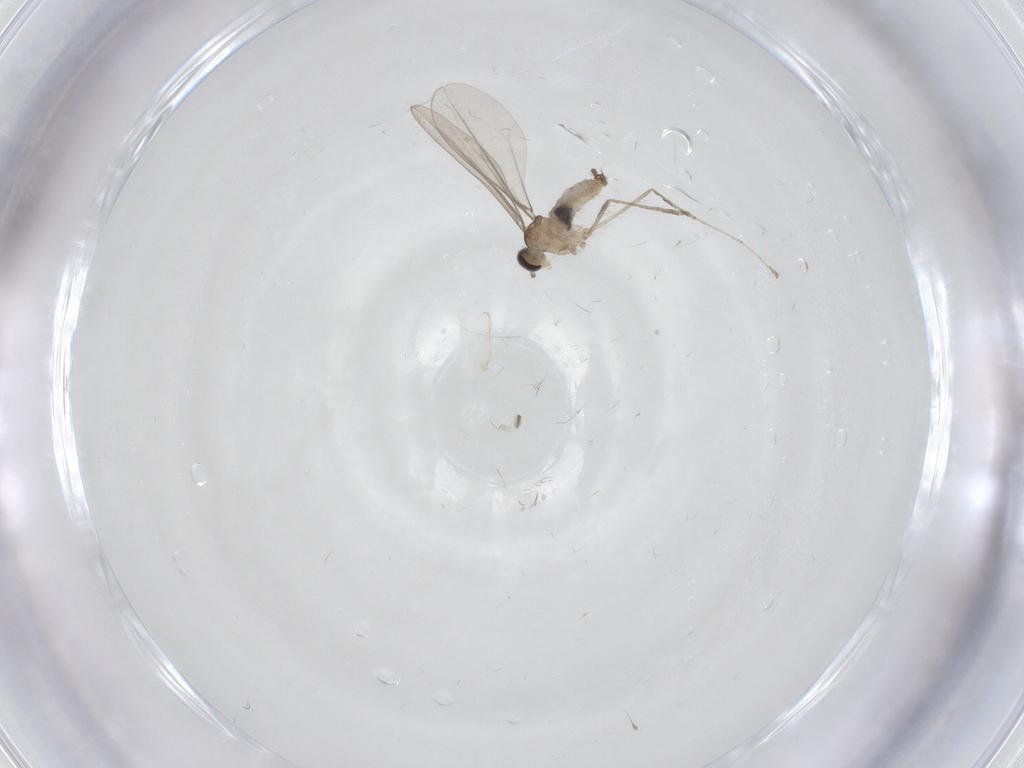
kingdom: Animalia
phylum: Arthropoda
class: Insecta
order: Diptera
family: Cecidomyiidae
